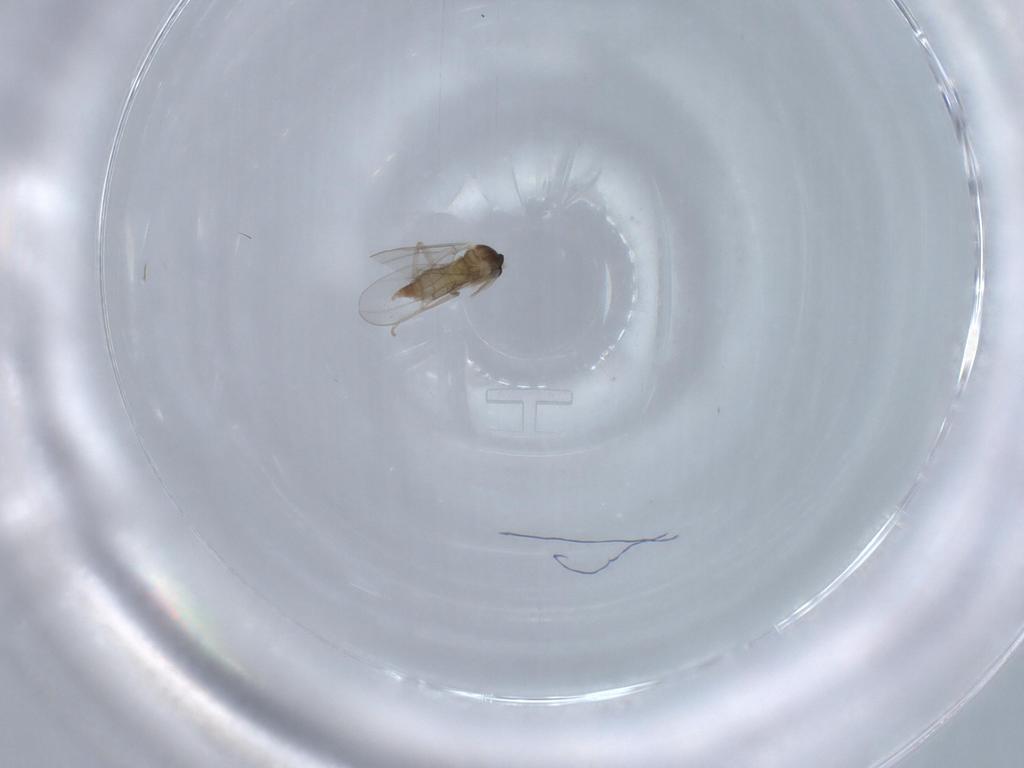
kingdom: Animalia
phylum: Arthropoda
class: Insecta
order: Diptera
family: Cecidomyiidae
